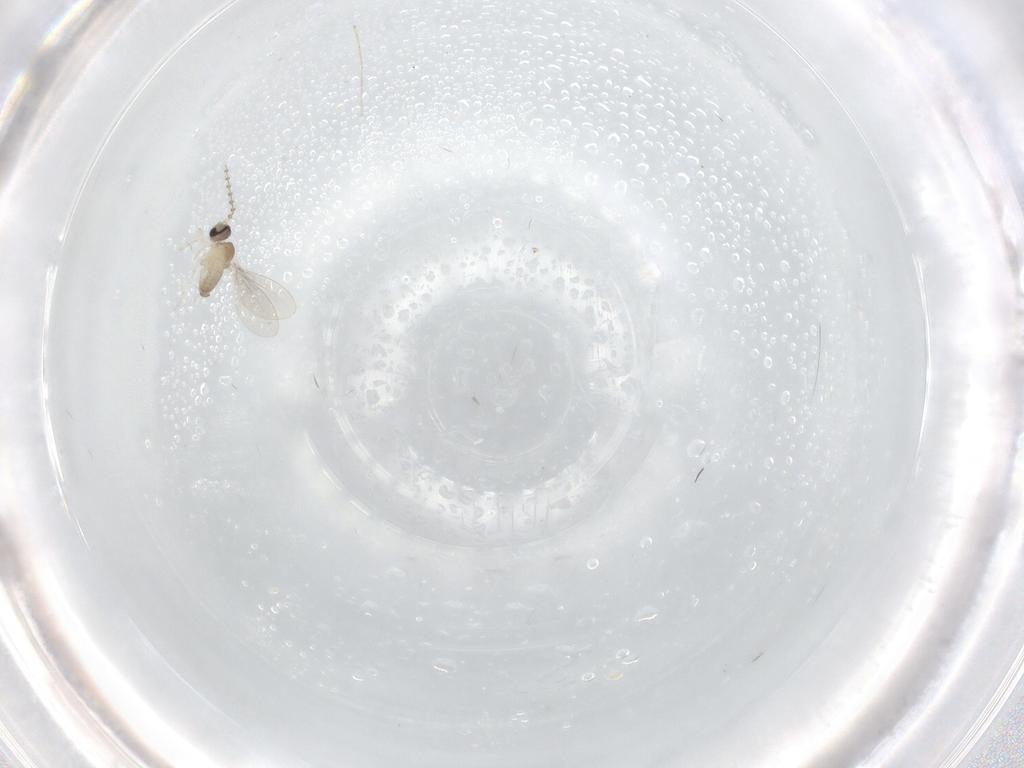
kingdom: Animalia
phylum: Arthropoda
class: Insecta
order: Diptera
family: Cecidomyiidae
